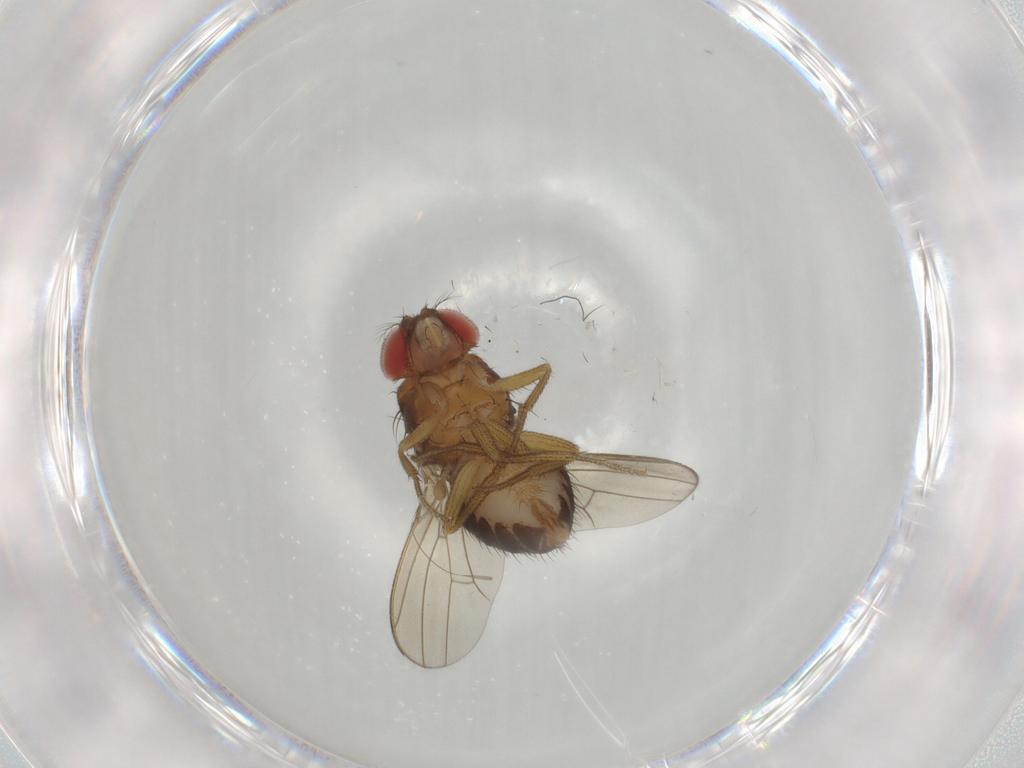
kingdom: Animalia
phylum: Arthropoda
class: Insecta
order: Diptera
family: Drosophilidae
